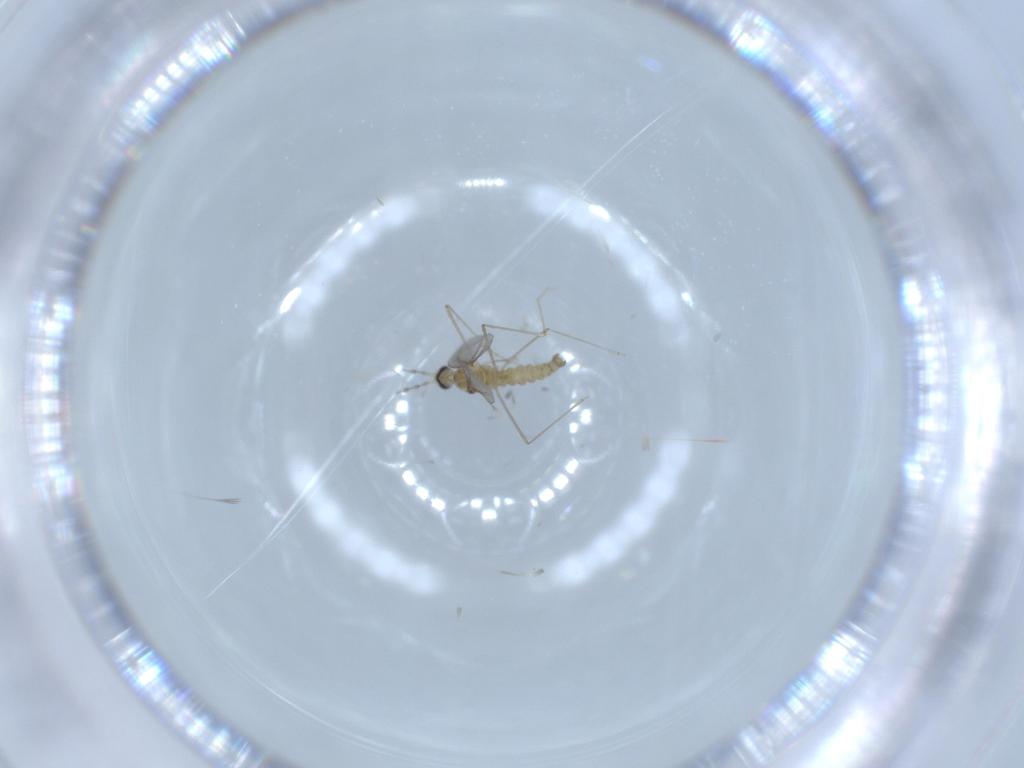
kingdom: Animalia
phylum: Arthropoda
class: Insecta
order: Diptera
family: Cecidomyiidae
